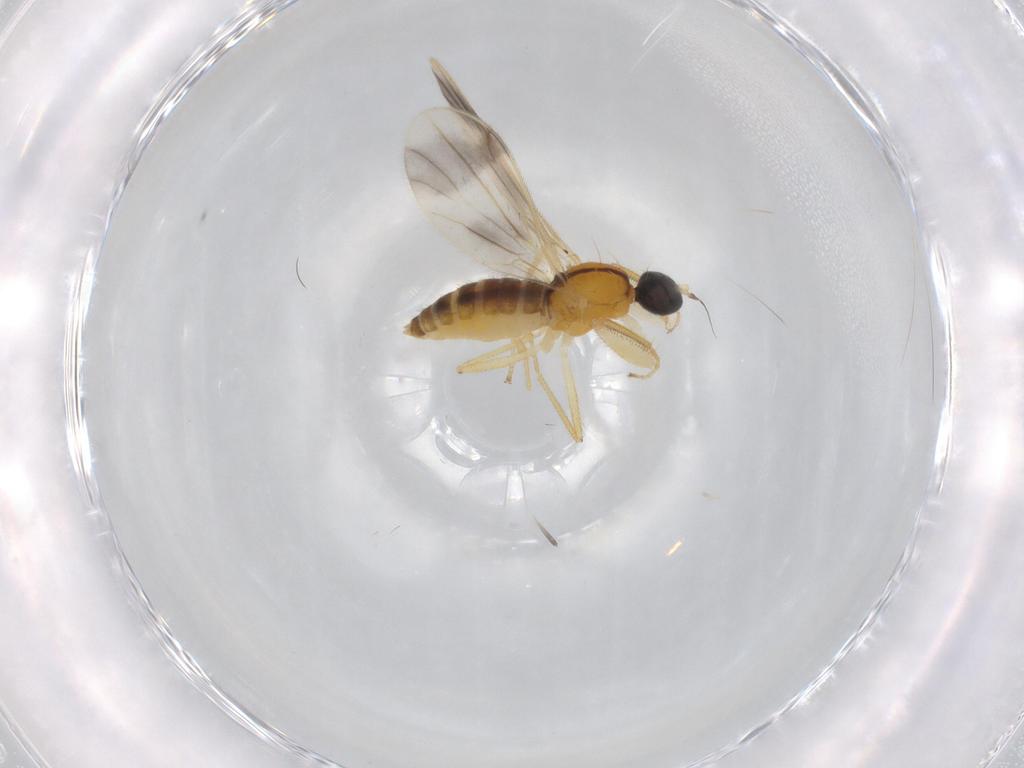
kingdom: Animalia
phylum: Arthropoda
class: Insecta
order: Diptera
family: Empididae
